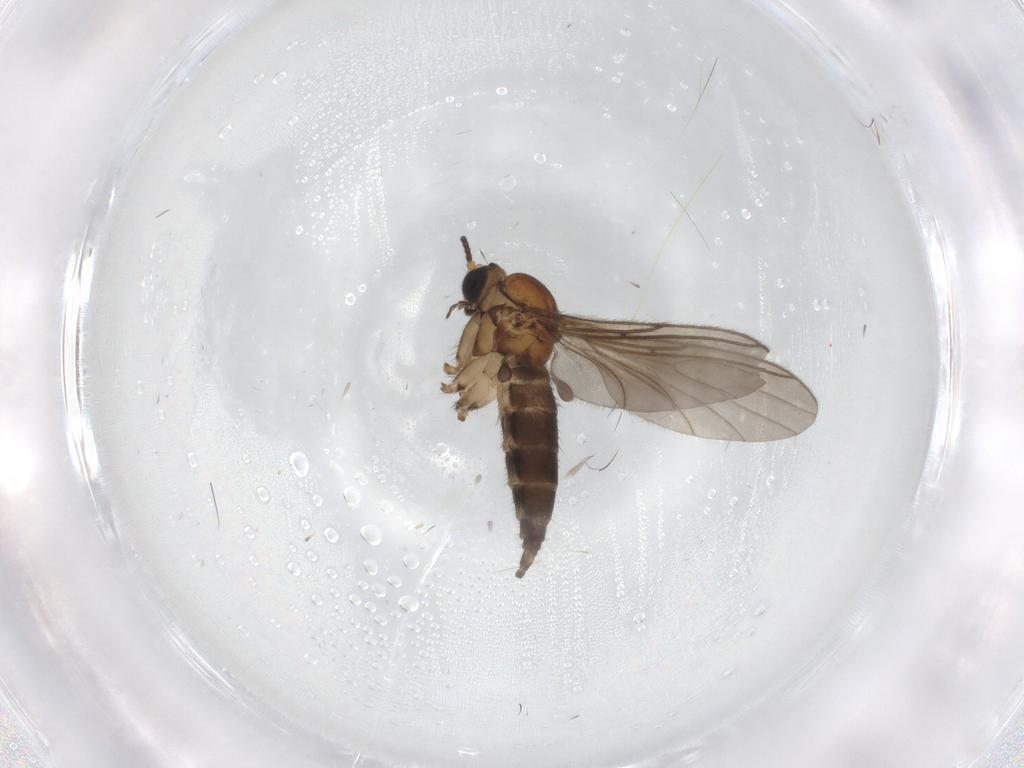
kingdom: Animalia
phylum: Arthropoda
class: Insecta
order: Diptera
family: Sciaridae
